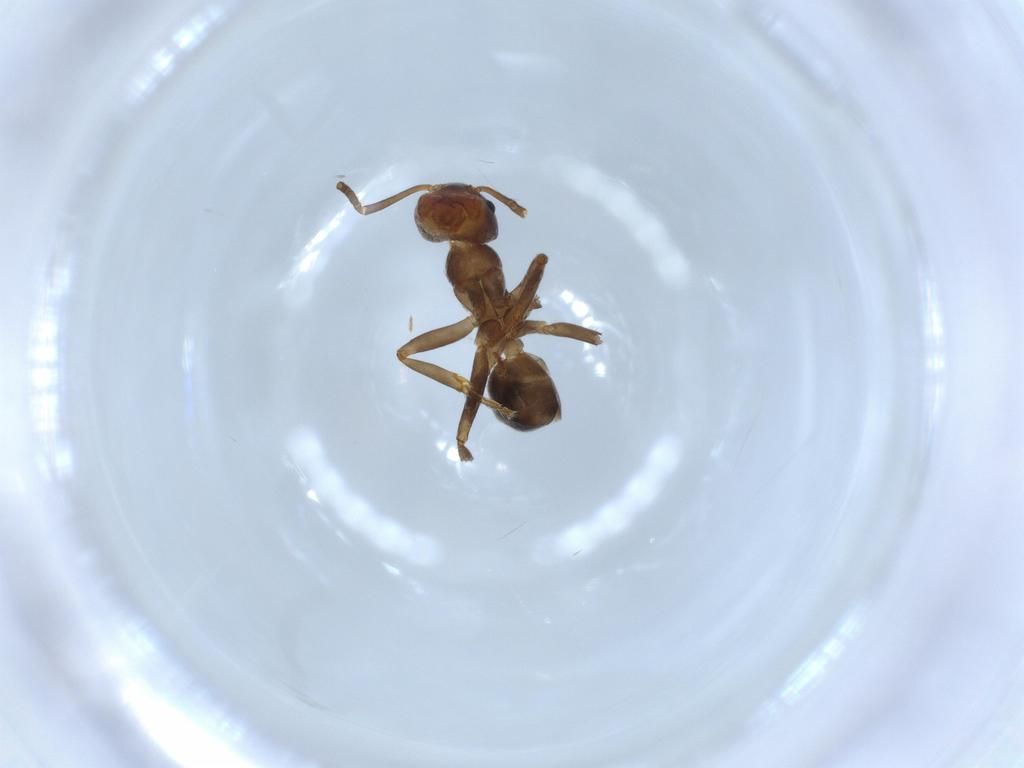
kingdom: Animalia
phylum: Arthropoda
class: Insecta
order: Hymenoptera
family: Formicidae
